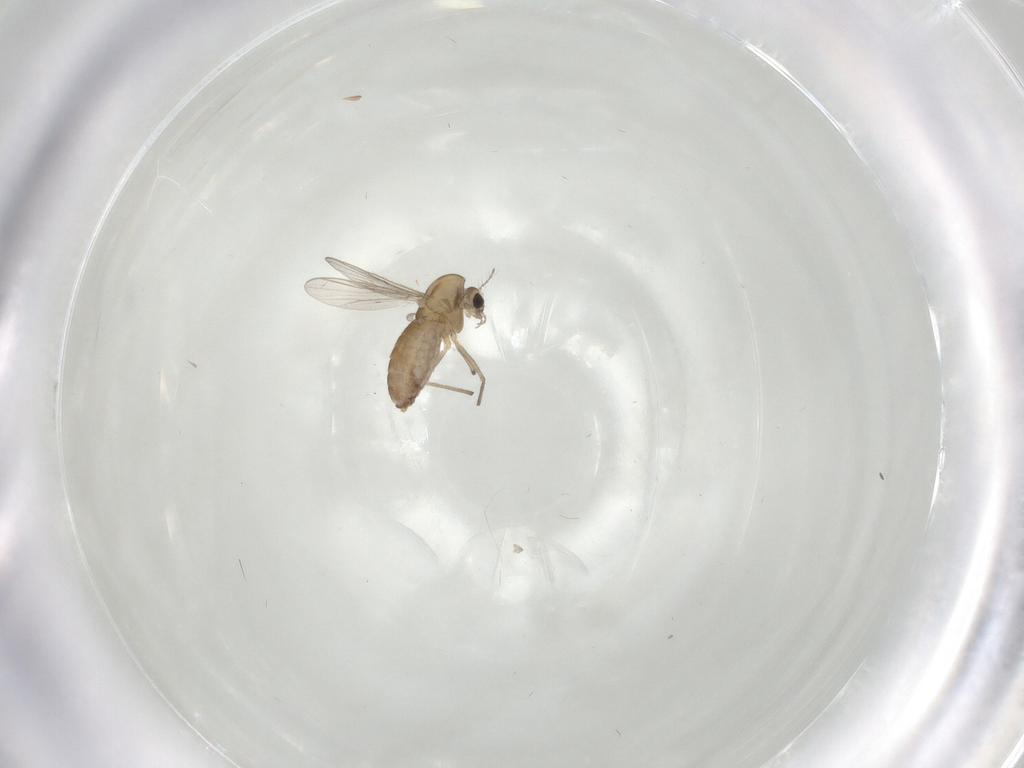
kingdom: Animalia
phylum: Arthropoda
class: Insecta
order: Diptera
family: Chironomidae
